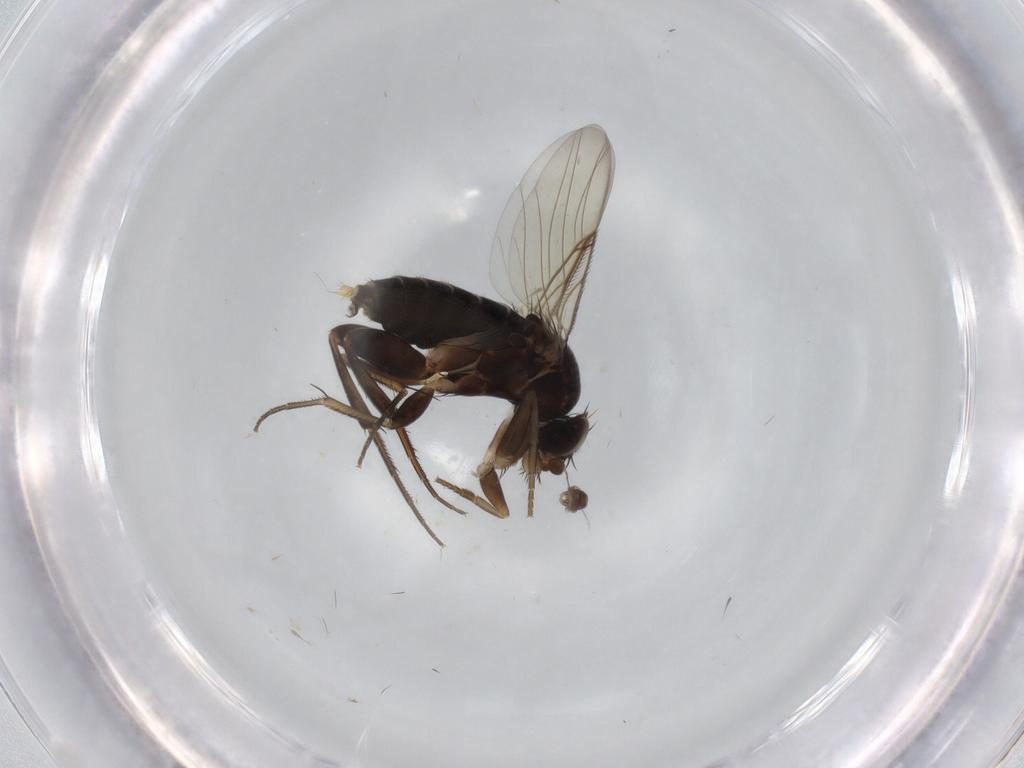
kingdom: Animalia
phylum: Arthropoda
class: Insecta
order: Diptera
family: Phoridae
